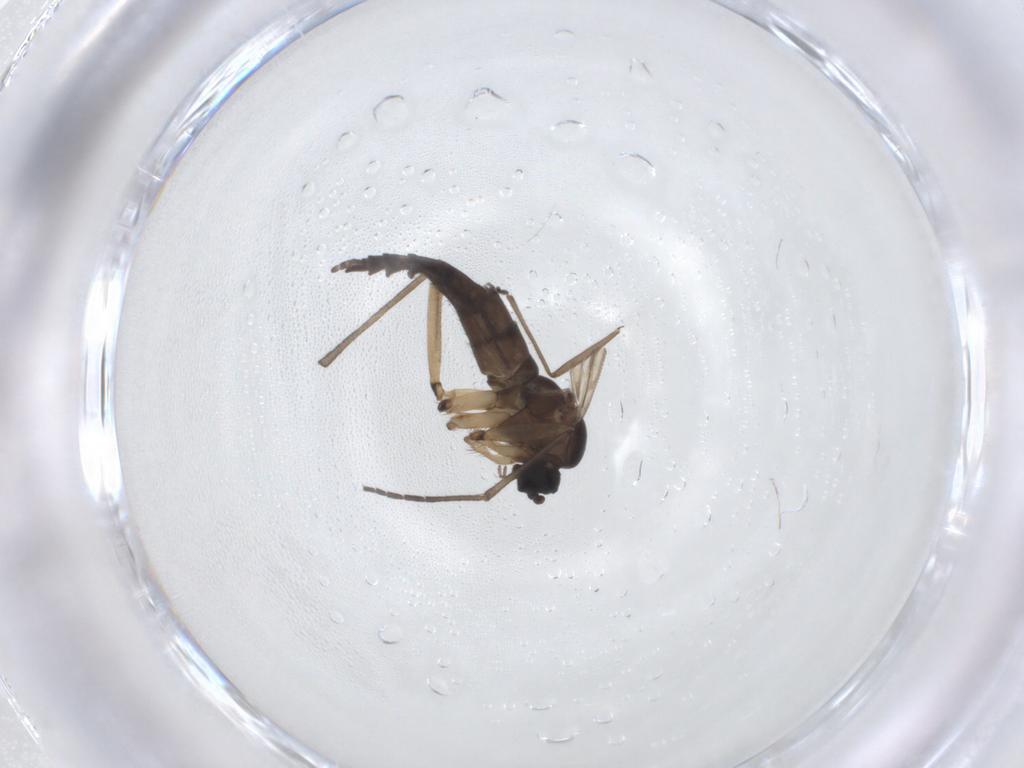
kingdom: Animalia
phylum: Arthropoda
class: Insecta
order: Diptera
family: Sciaridae
